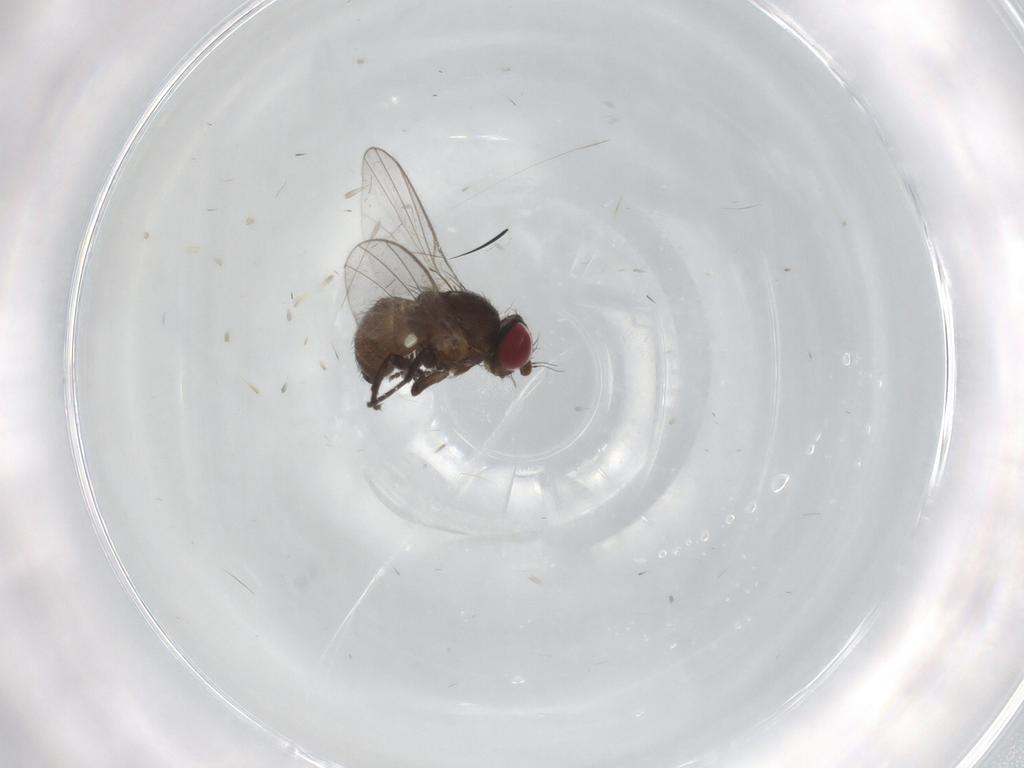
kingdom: Animalia
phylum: Arthropoda
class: Insecta
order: Diptera
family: Agromyzidae
